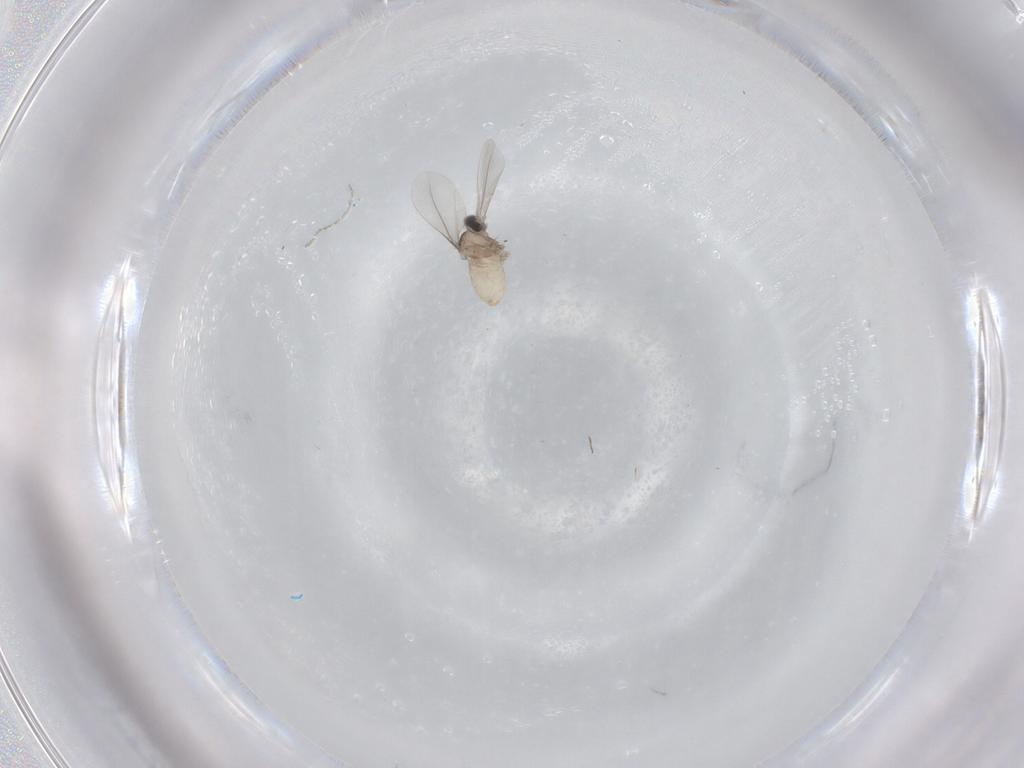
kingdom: Animalia
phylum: Arthropoda
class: Insecta
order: Diptera
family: Cecidomyiidae
